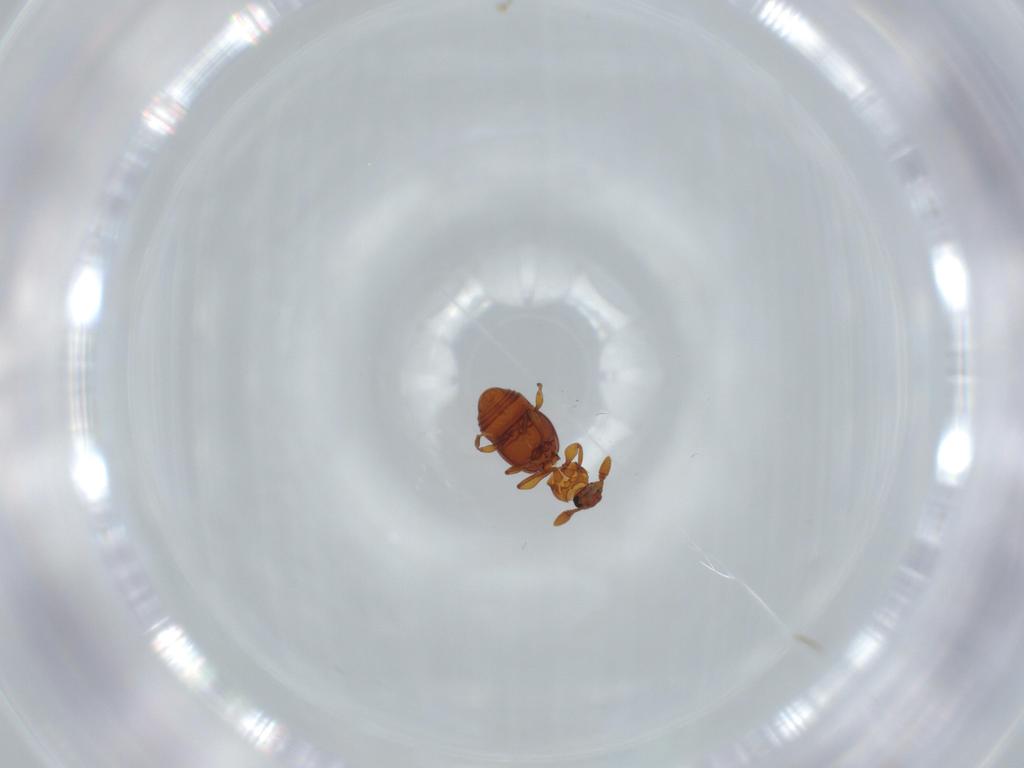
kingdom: Animalia
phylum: Arthropoda
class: Insecta
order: Coleoptera
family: Staphylinidae
